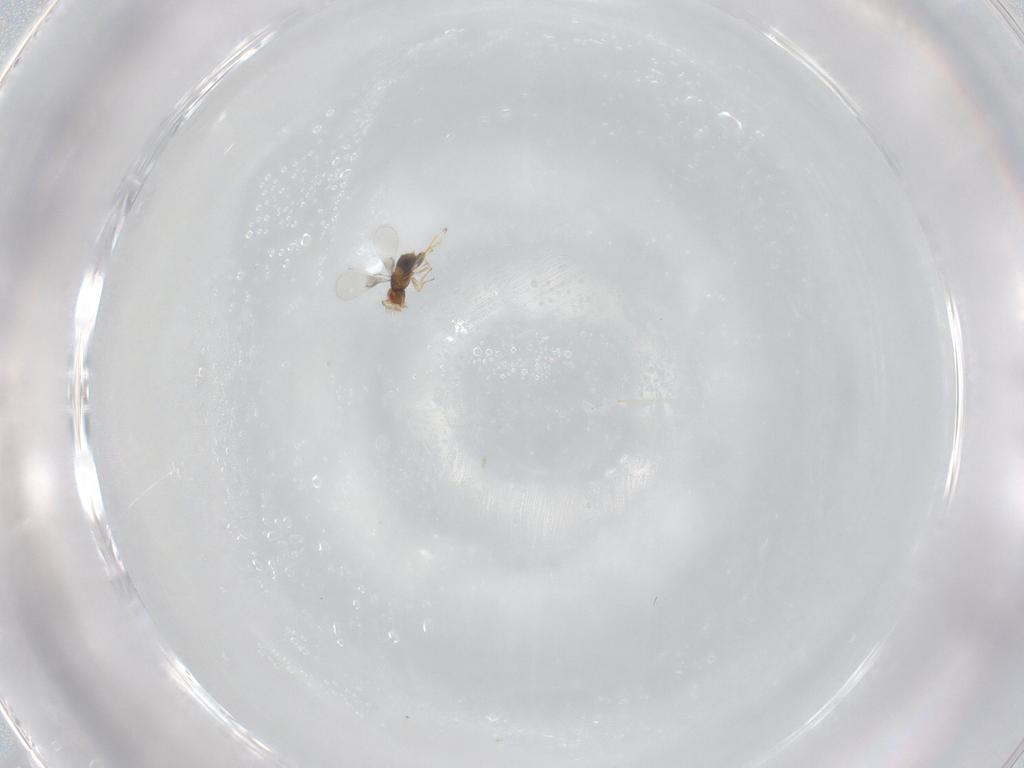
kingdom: Animalia
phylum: Arthropoda
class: Insecta
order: Hymenoptera
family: Trichogrammatidae
